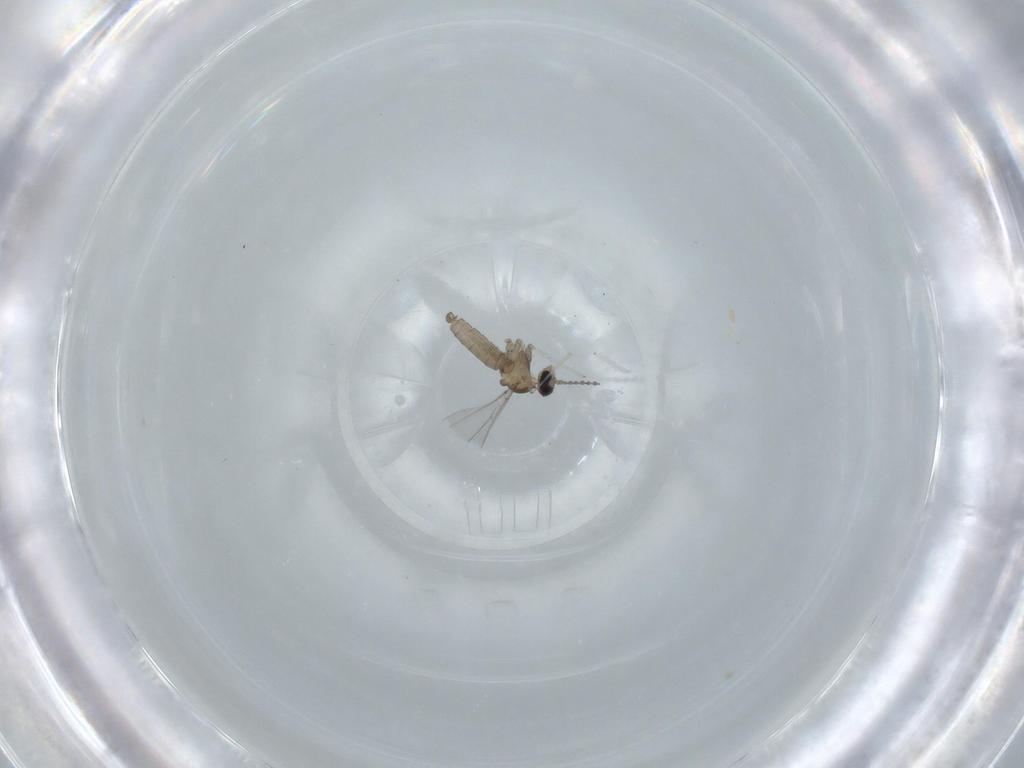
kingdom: Animalia
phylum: Arthropoda
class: Insecta
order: Diptera
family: Cecidomyiidae
